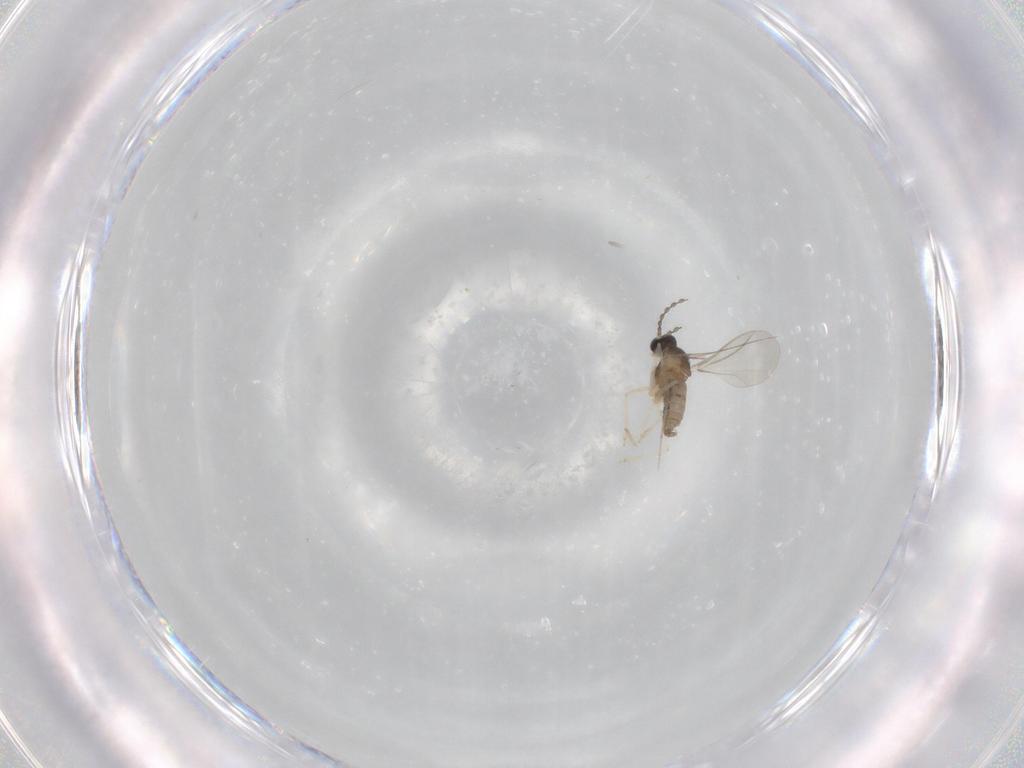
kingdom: Animalia
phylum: Arthropoda
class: Insecta
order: Diptera
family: Cecidomyiidae
